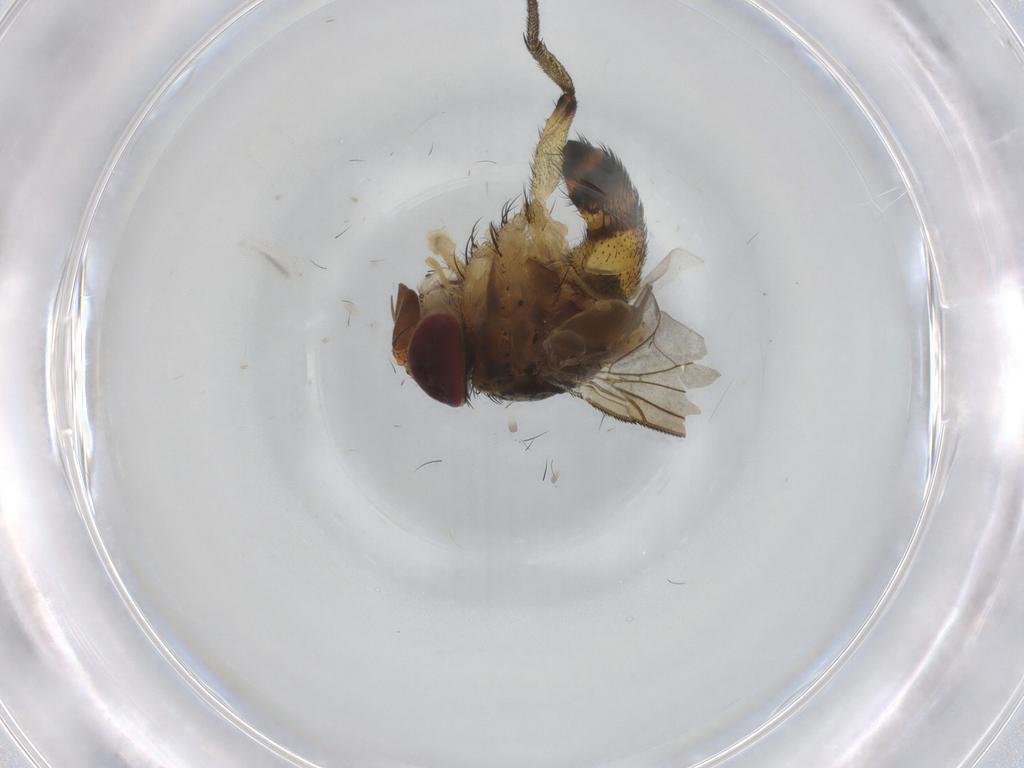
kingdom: Animalia
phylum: Arthropoda
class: Insecta
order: Diptera
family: Tachinidae
